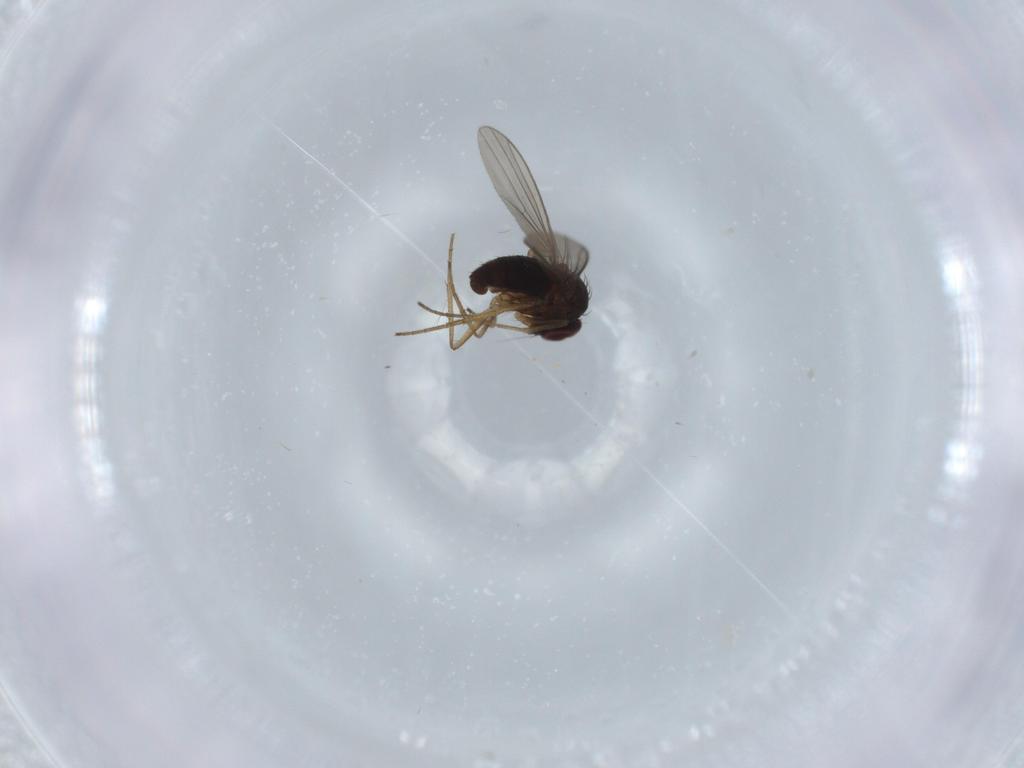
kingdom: Animalia
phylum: Arthropoda
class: Insecta
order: Diptera
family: Dolichopodidae
